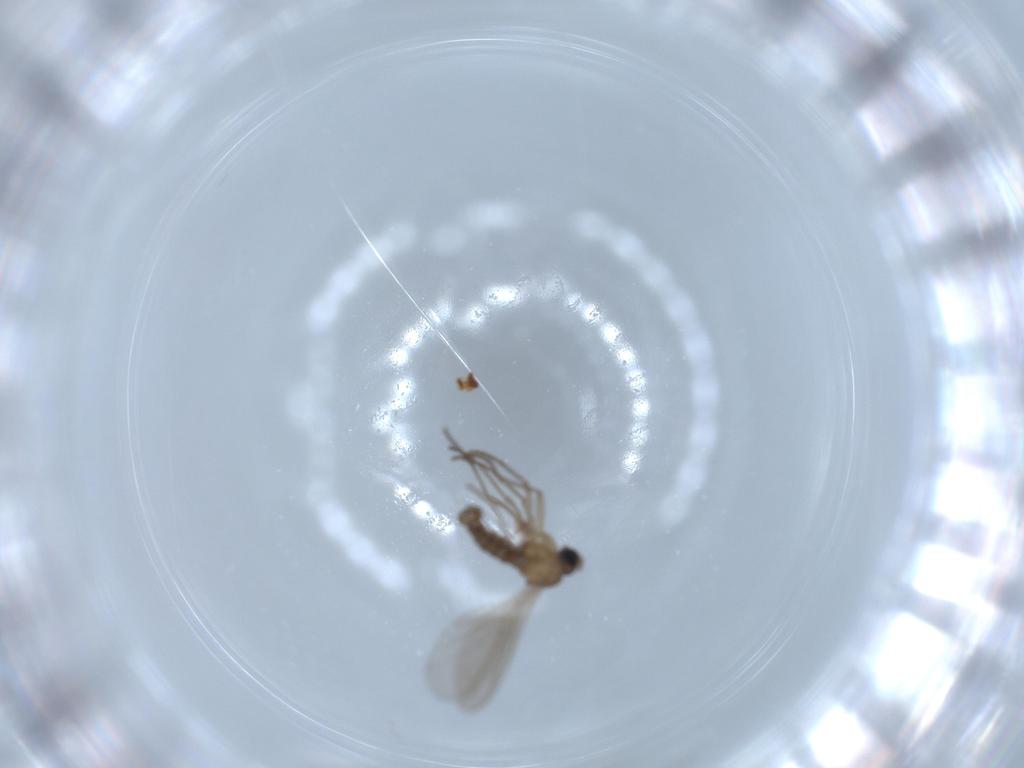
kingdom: Animalia
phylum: Arthropoda
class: Insecta
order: Diptera
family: Sciaridae
